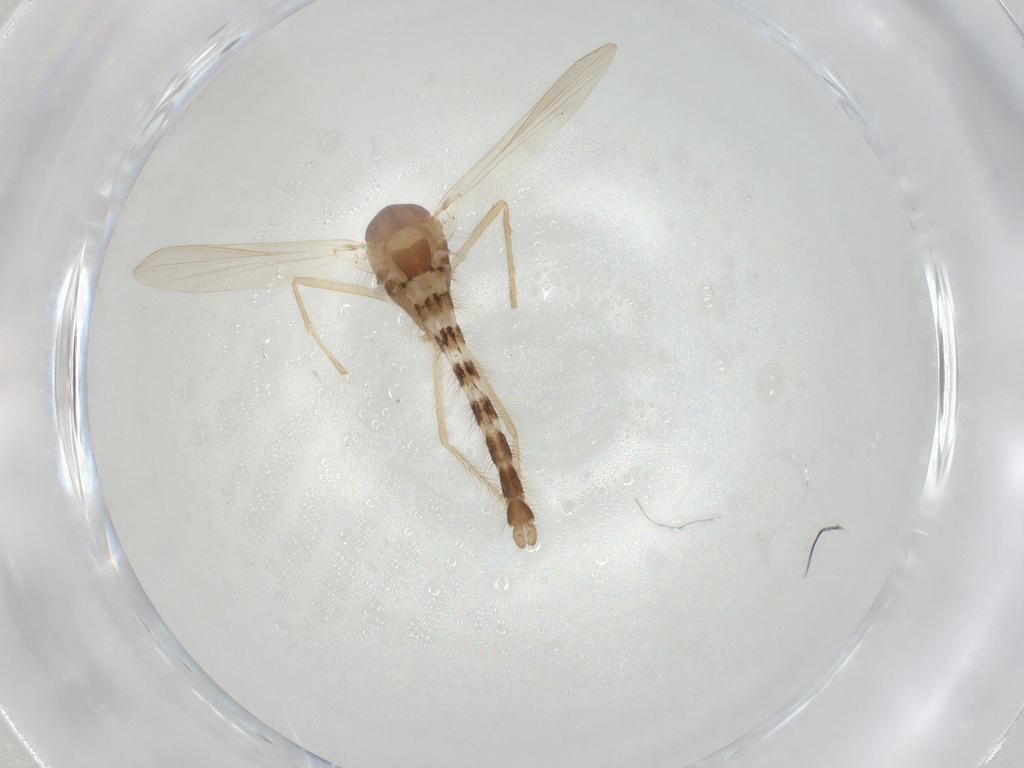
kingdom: Animalia
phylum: Arthropoda
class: Insecta
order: Diptera
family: Chironomidae
